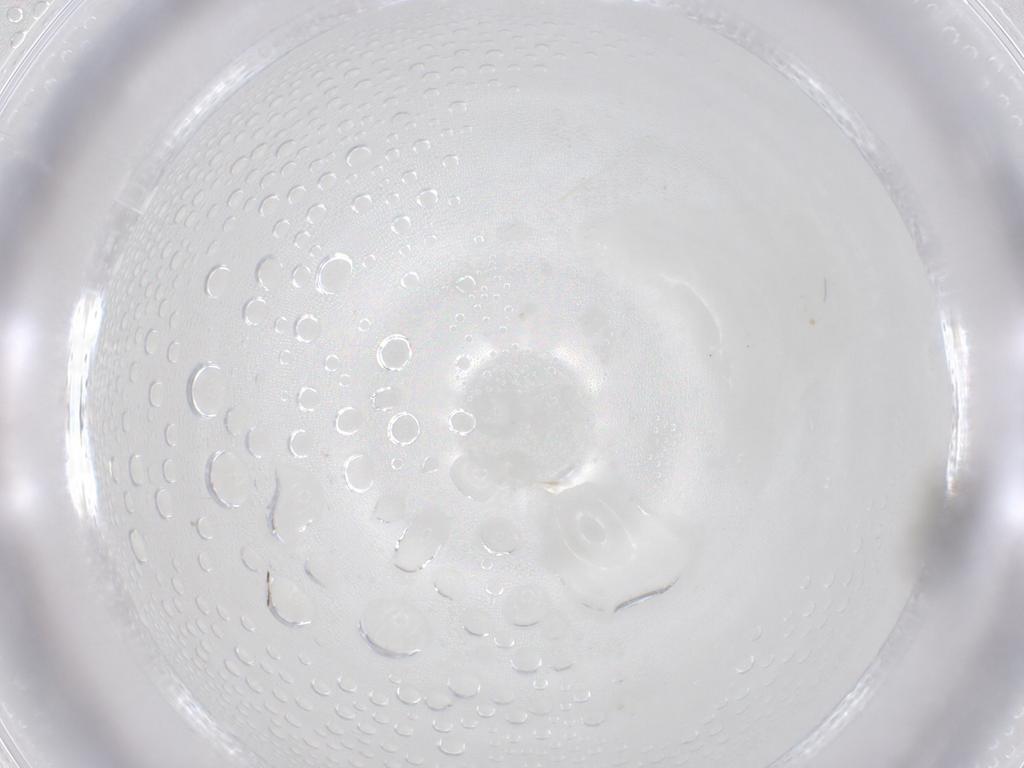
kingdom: Animalia
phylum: Arthropoda
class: Insecta
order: Hymenoptera
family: Eulophidae
